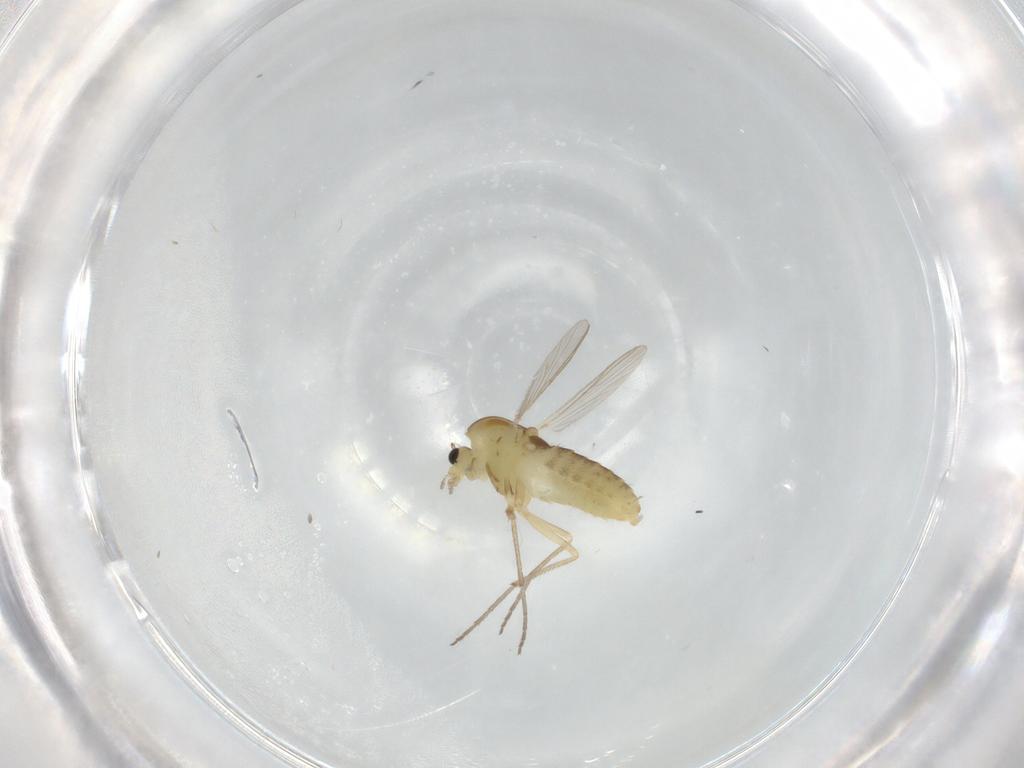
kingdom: Animalia
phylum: Arthropoda
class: Insecta
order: Diptera
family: Chironomidae
